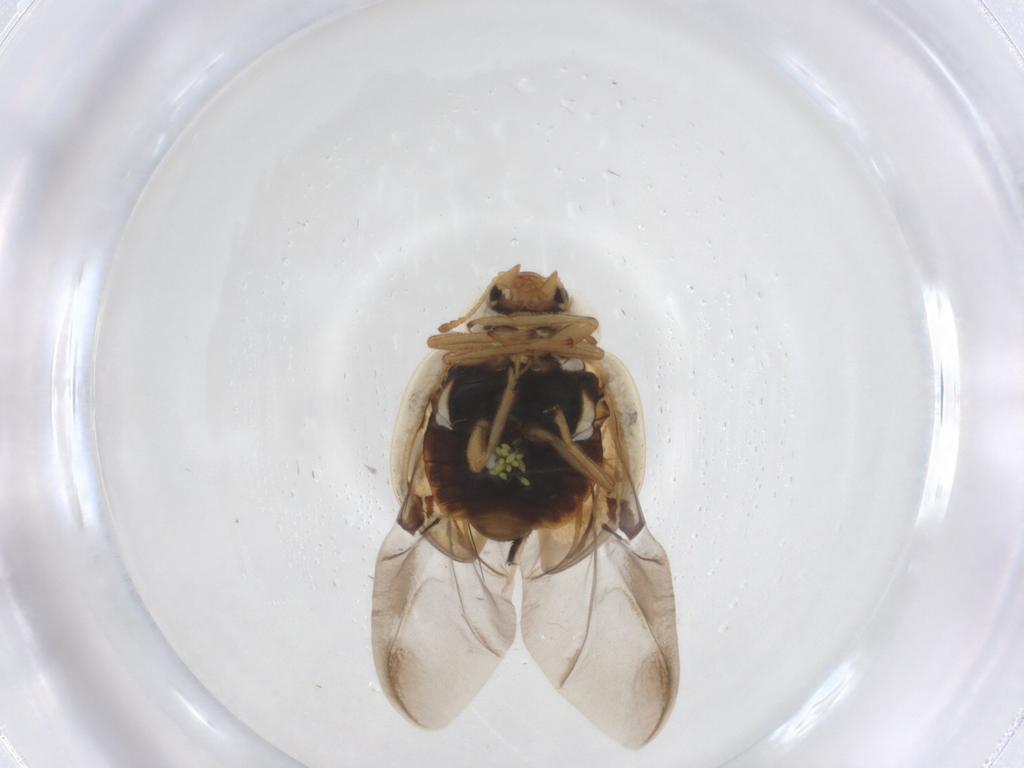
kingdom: Animalia
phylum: Arthropoda
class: Insecta
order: Coleoptera
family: Coccinellidae
